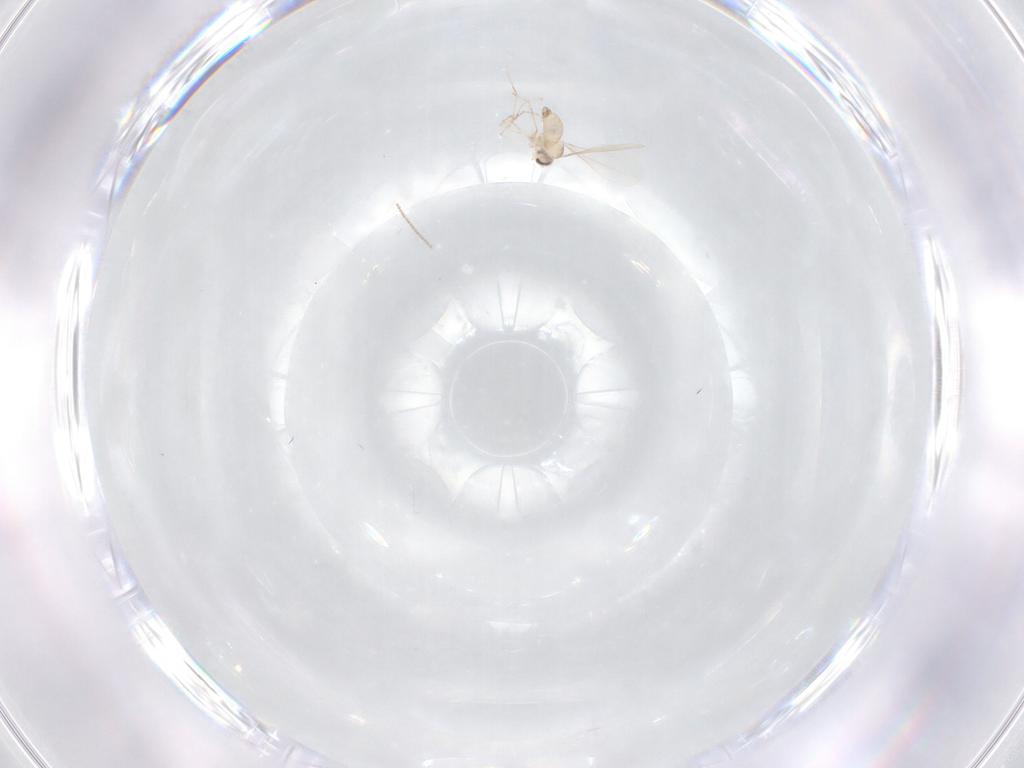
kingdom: Animalia
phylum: Arthropoda
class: Insecta
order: Diptera
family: Cecidomyiidae
